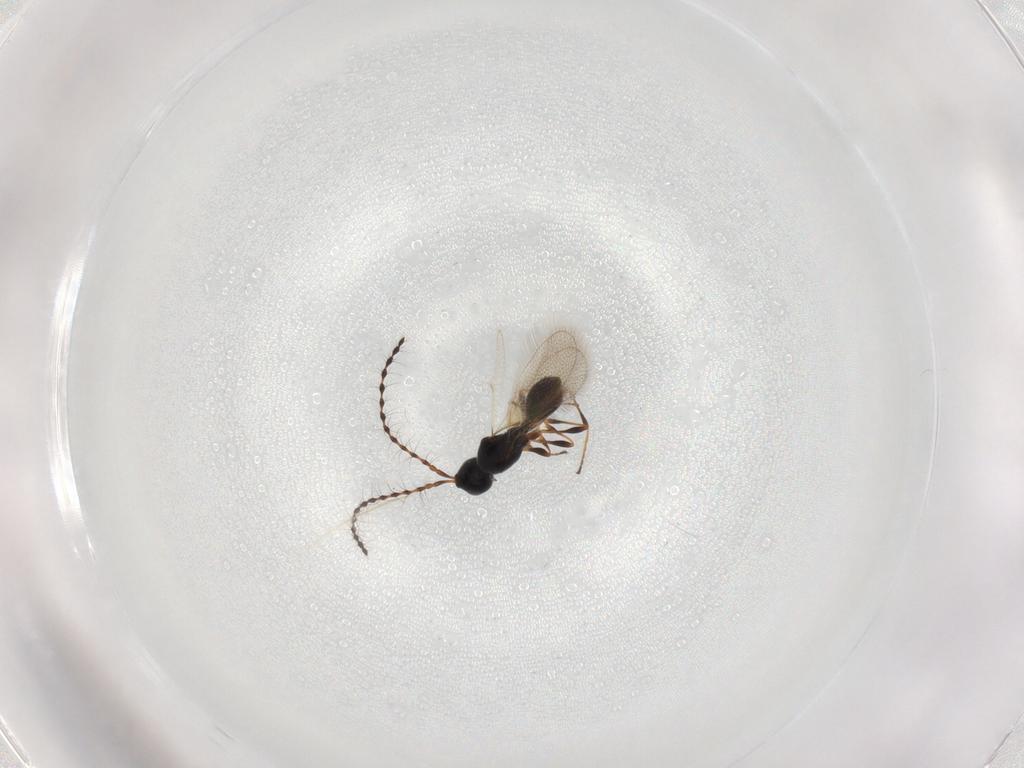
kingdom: Animalia
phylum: Arthropoda
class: Insecta
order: Hymenoptera
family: Diapriidae
